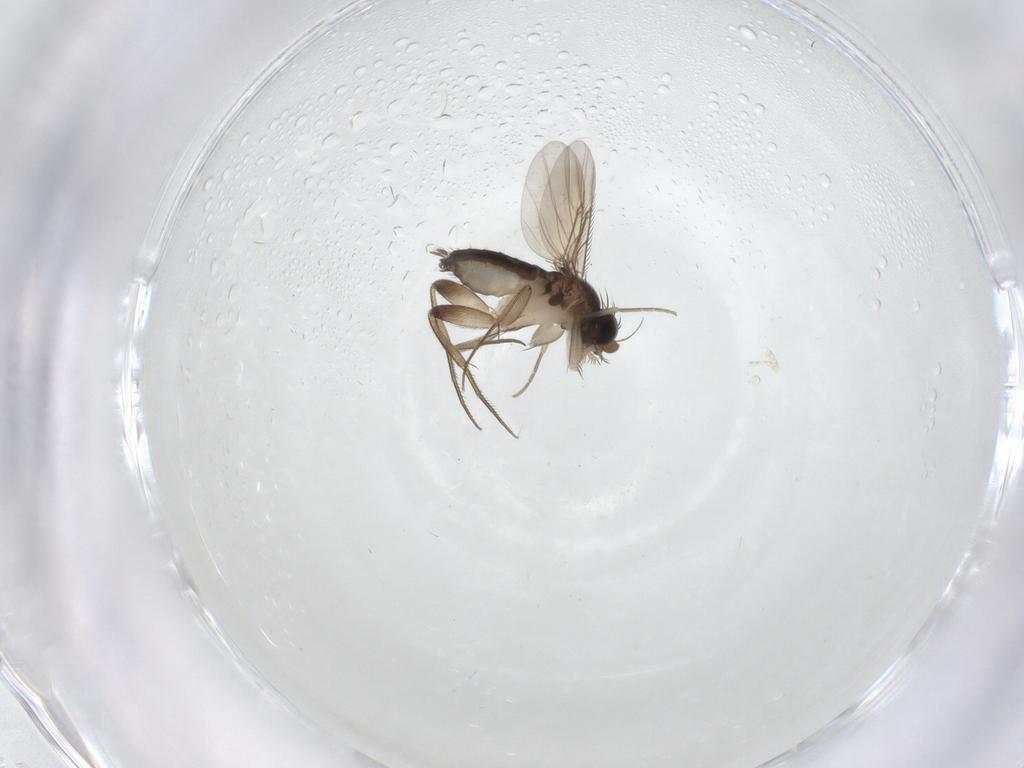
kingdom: Animalia
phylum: Arthropoda
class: Insecta
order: Diptera
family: Phoridae
